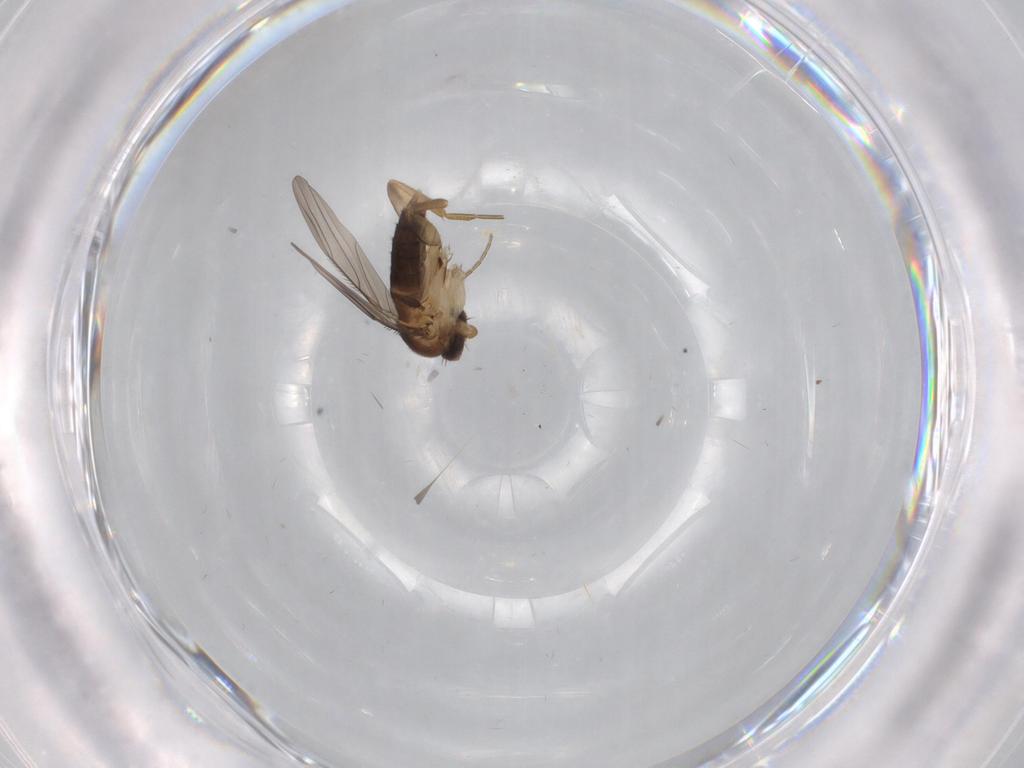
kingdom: Animalia
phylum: Arthropoda
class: Insecta
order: Diptera
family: Phoridae
